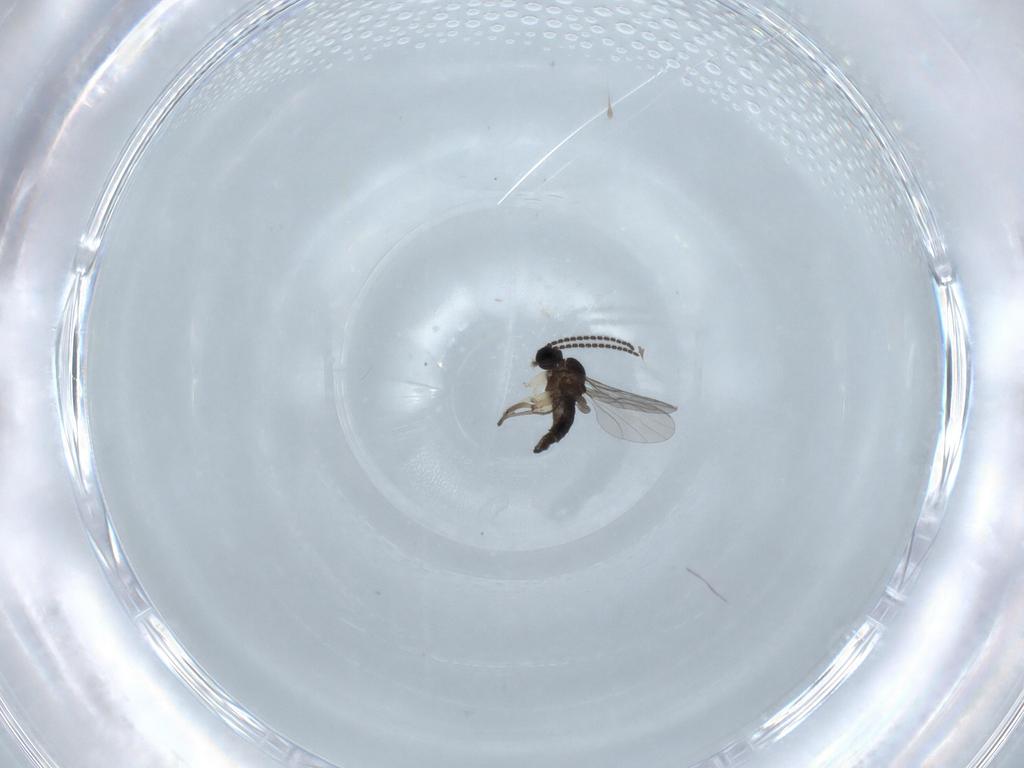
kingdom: Animalia
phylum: Arthropoda
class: Insecta
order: Diptera
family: Sciaridae
